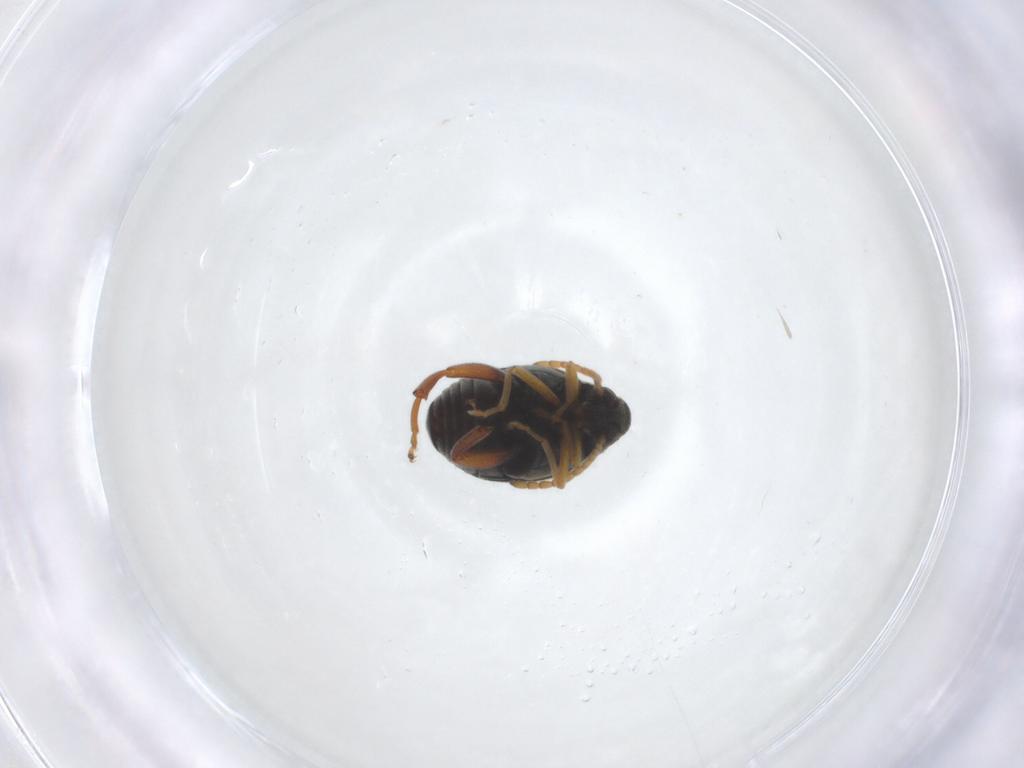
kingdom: Animalia
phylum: Arthropoda
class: Insecta
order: Coleoptera
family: Chrysomelidae
